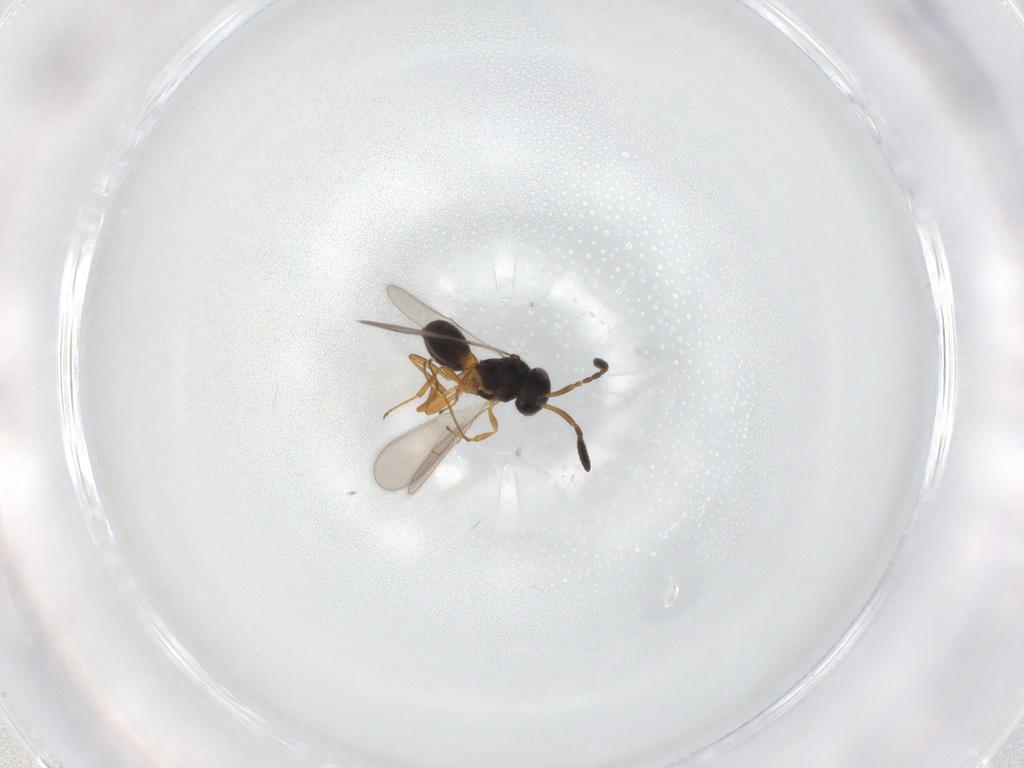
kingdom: Animalia
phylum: Arthropoda
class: Insecta
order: Hymenoptera
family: Scelionidae
